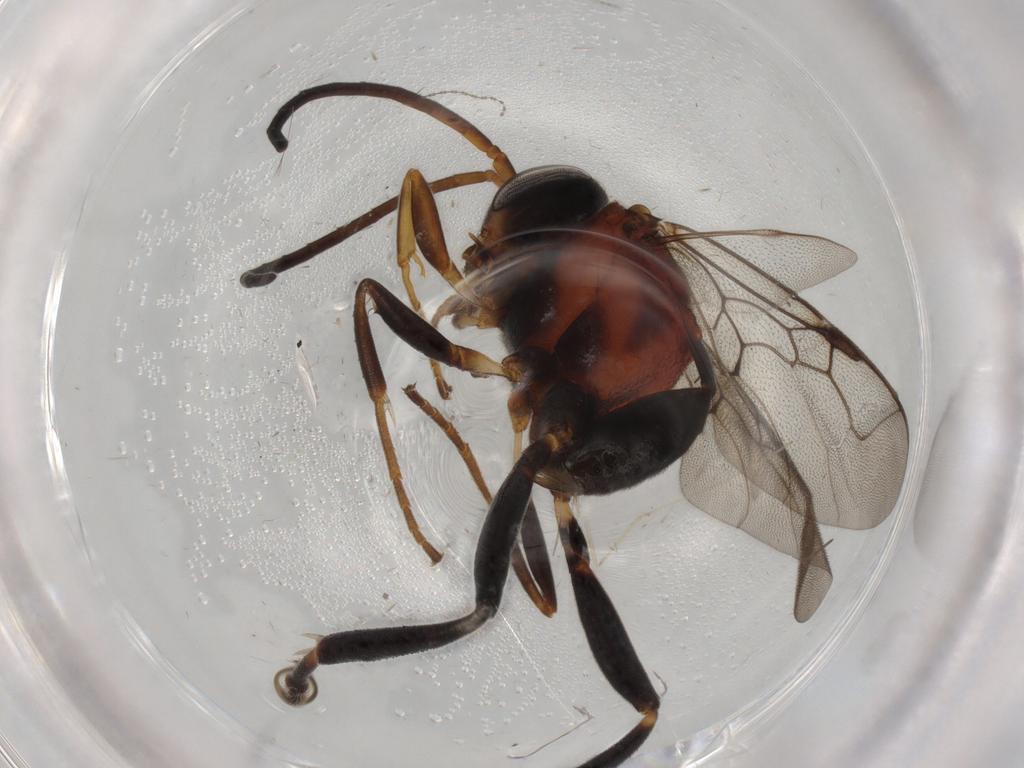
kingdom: Animalia
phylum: Arthropoda
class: Insecta
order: Hymenoptera
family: Evaniidae
